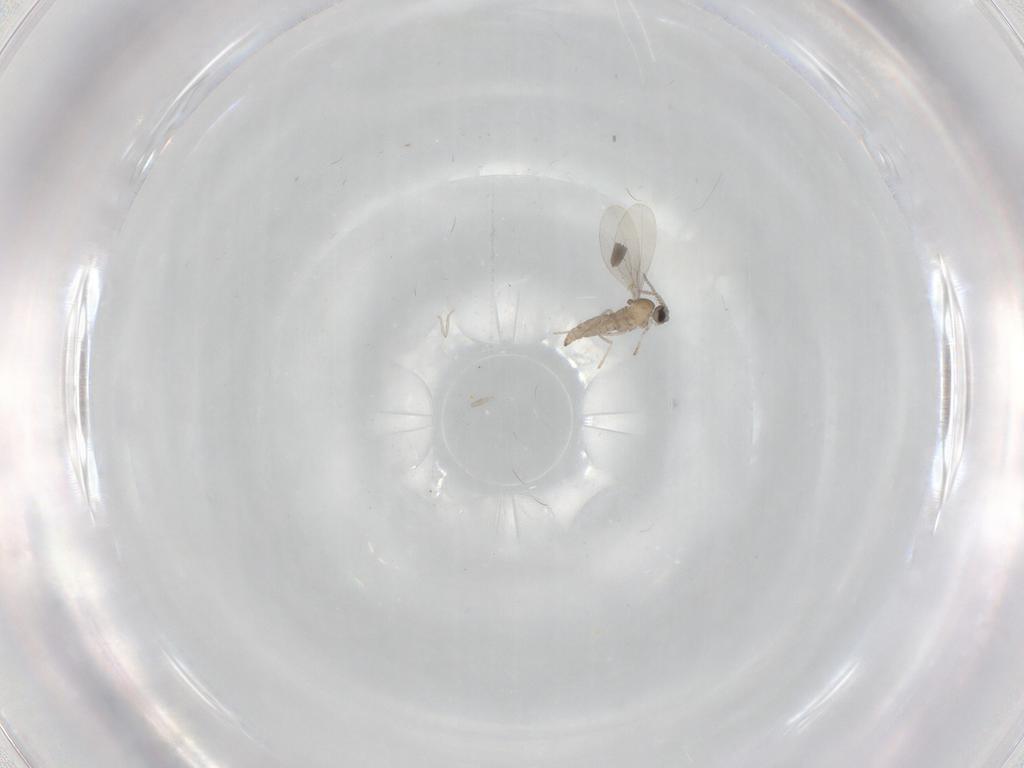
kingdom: Animalia
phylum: Arthropoda
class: Insecta
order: Diptera
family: Cecidomyiidae
